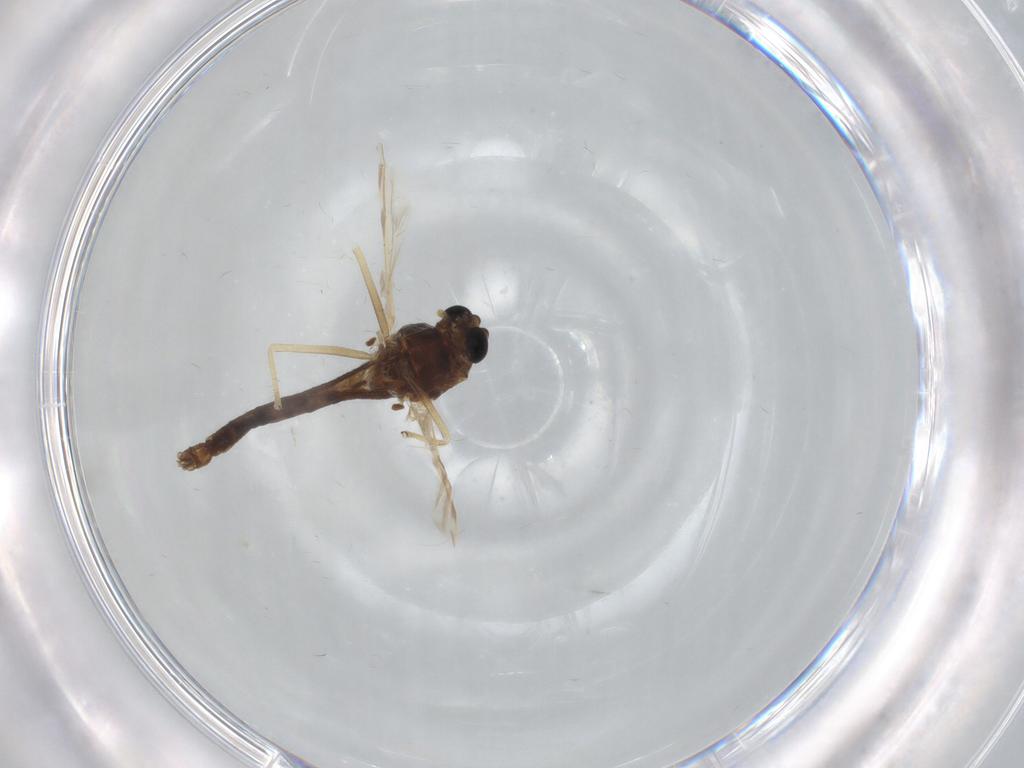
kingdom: Animalia
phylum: Arthropoda
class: Insecta
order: Diptera
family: Chironomidae
